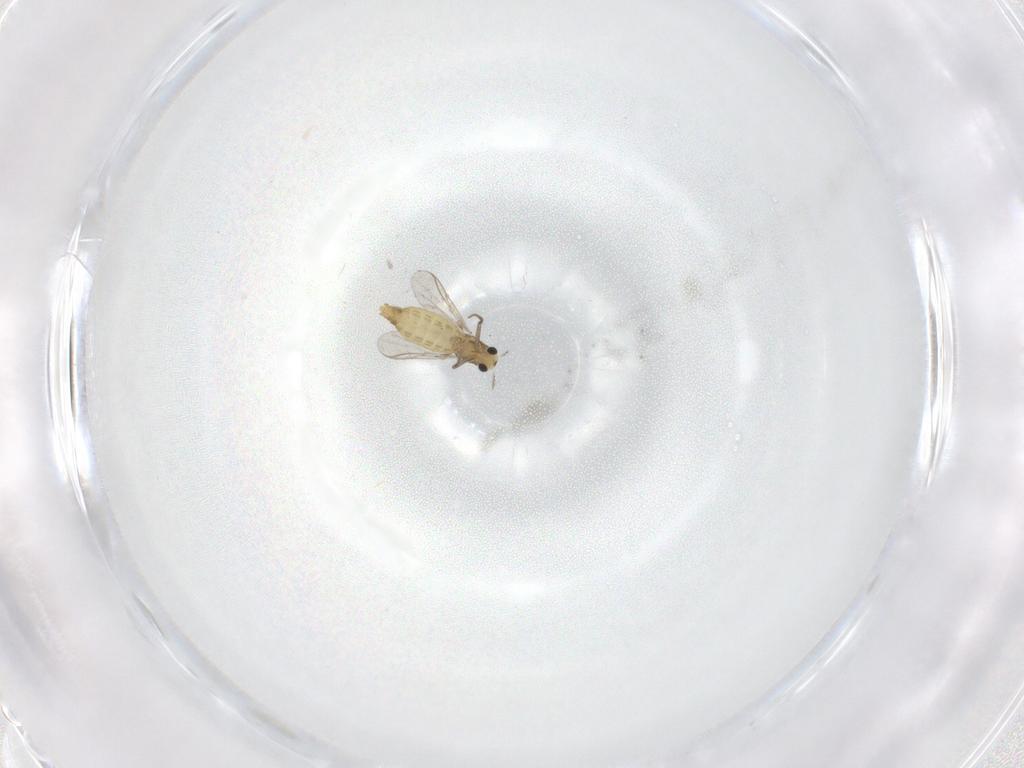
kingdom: Animalia
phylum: Arthropoda
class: Insecta
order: Diptera
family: Chironomidae
